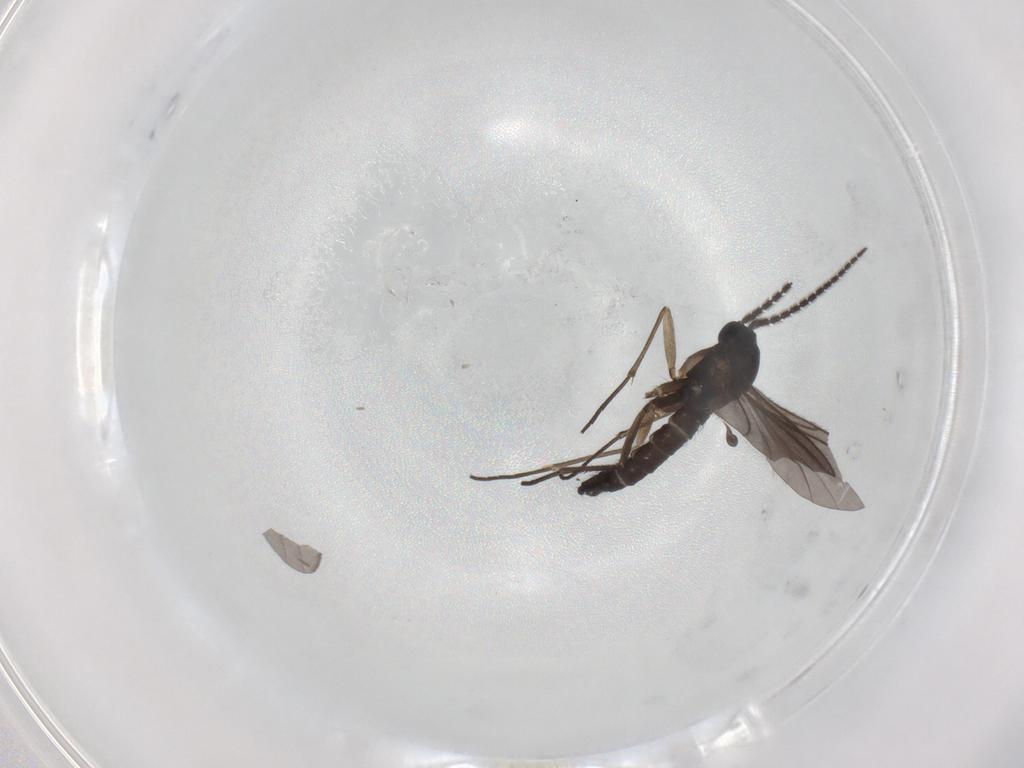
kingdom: Animalia
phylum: Arthropoda
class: Insecta
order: Diptera
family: Sciaridae
